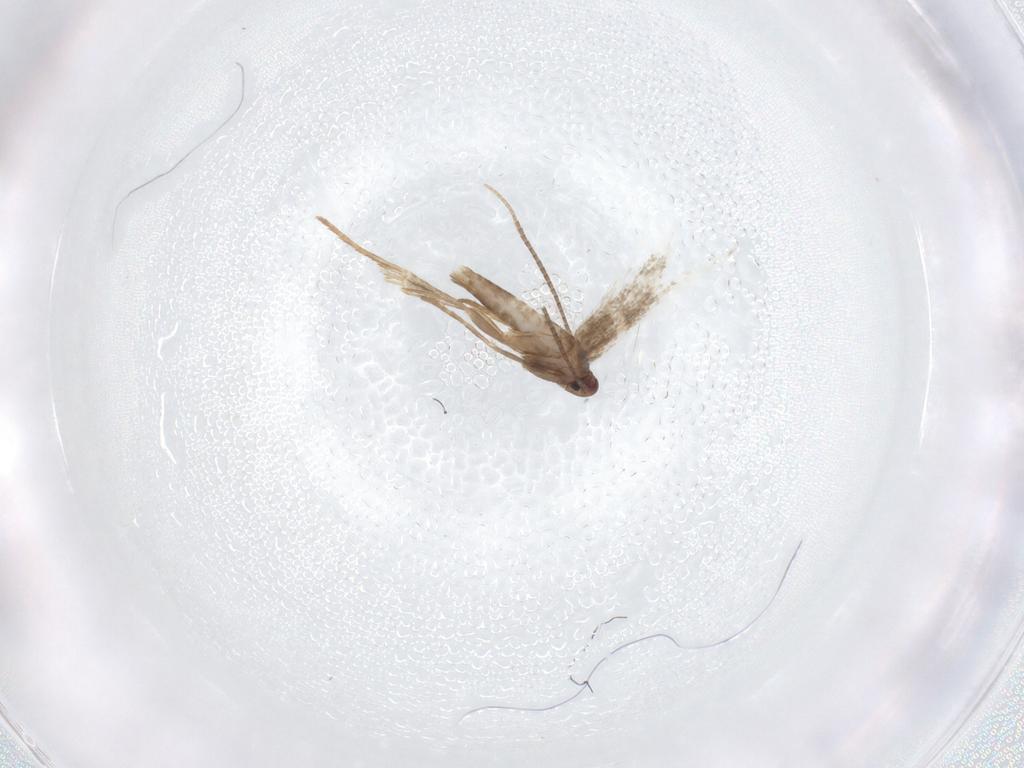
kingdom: Animalia
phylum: Arthropoda
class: Insecta
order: Lepidoptera
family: Gracillariidae
